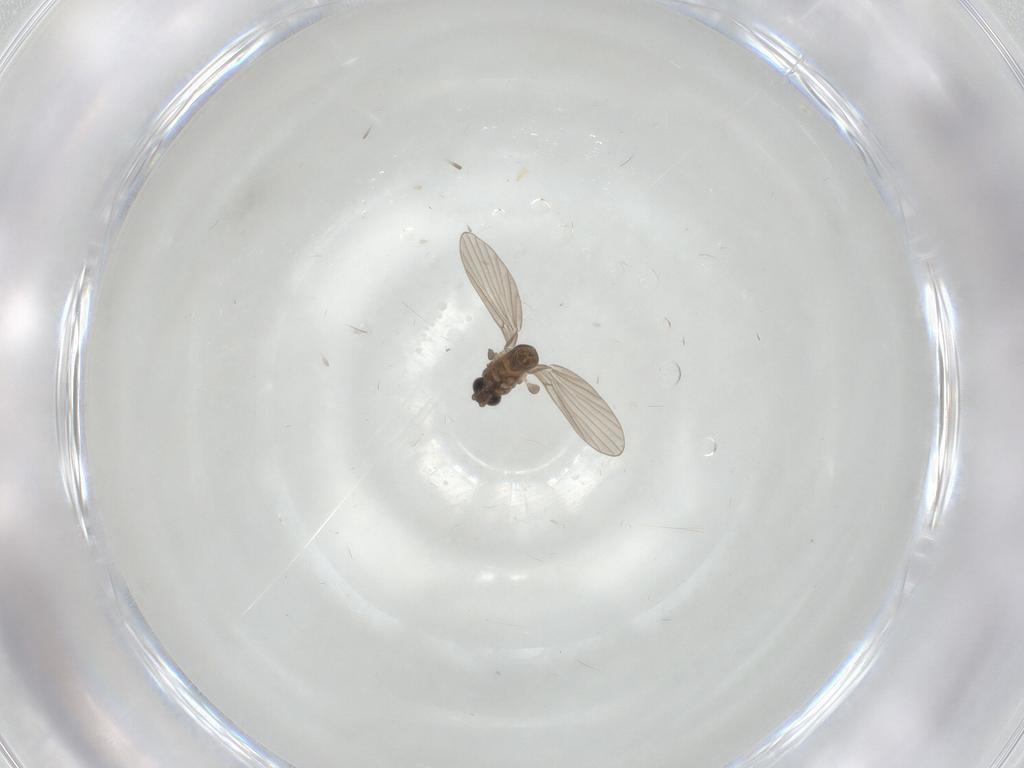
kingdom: Animalia
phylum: Arthropoda
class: Insecta
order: Diptera
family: Psychodidae
